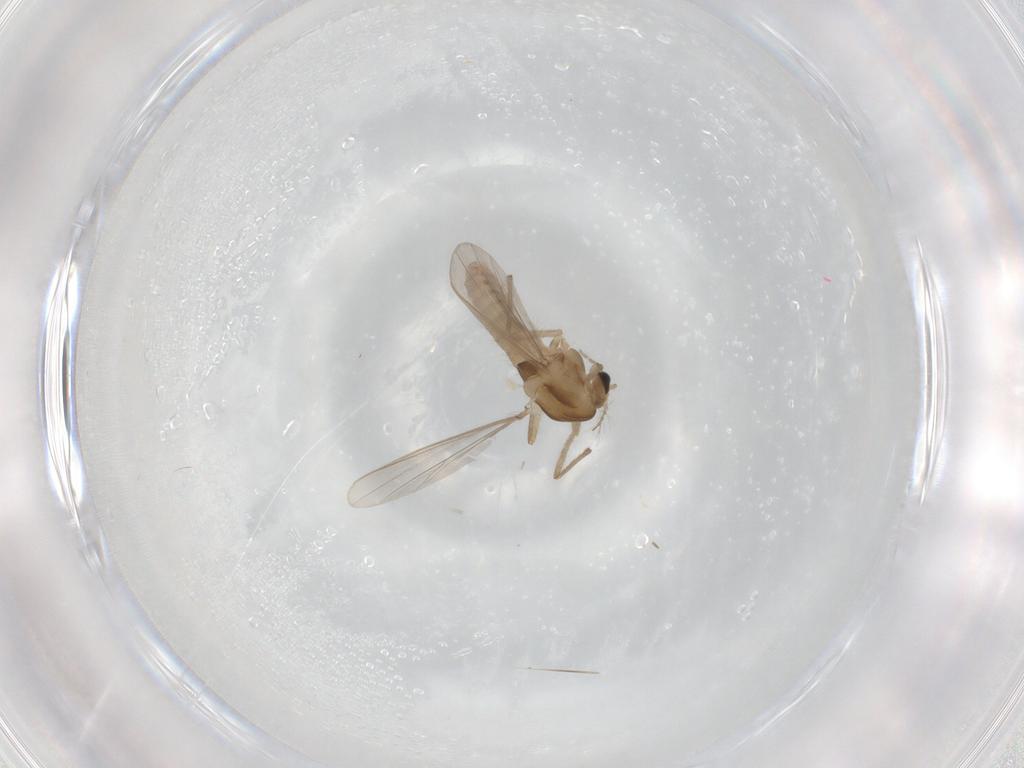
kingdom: Animalia
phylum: Arthropoda
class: Insecta
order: Diptera
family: Chironomidae
